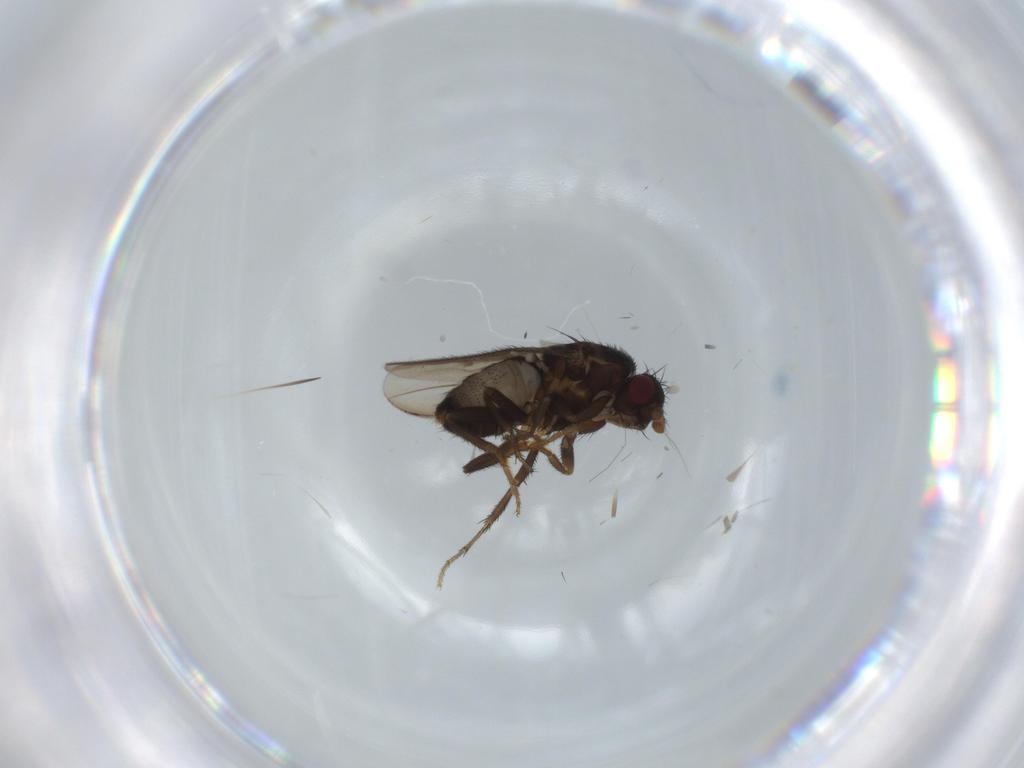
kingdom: Animalia
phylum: Arthropoda
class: Insecta
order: Diptera
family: Sphaeroceridae
